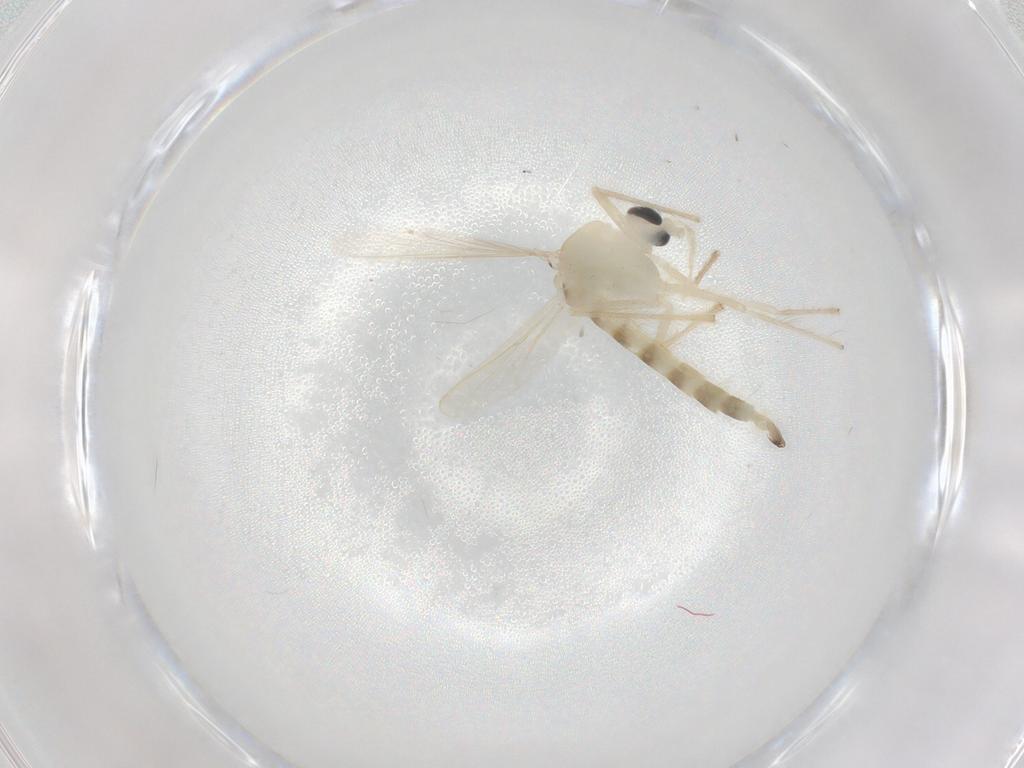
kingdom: Animalia
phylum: Arthropoda
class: Insecta
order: Diptera
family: Chironomidae
